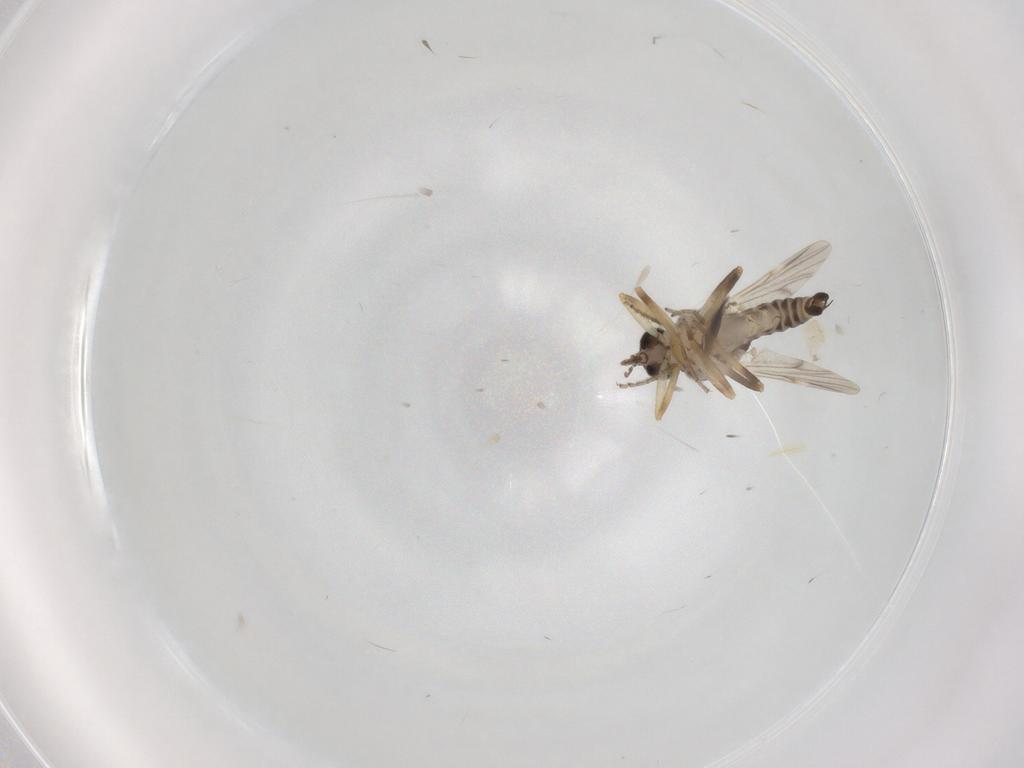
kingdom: Animalia
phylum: Arthropoda
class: Insecta
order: Diptera
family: Ceratopogonidae
